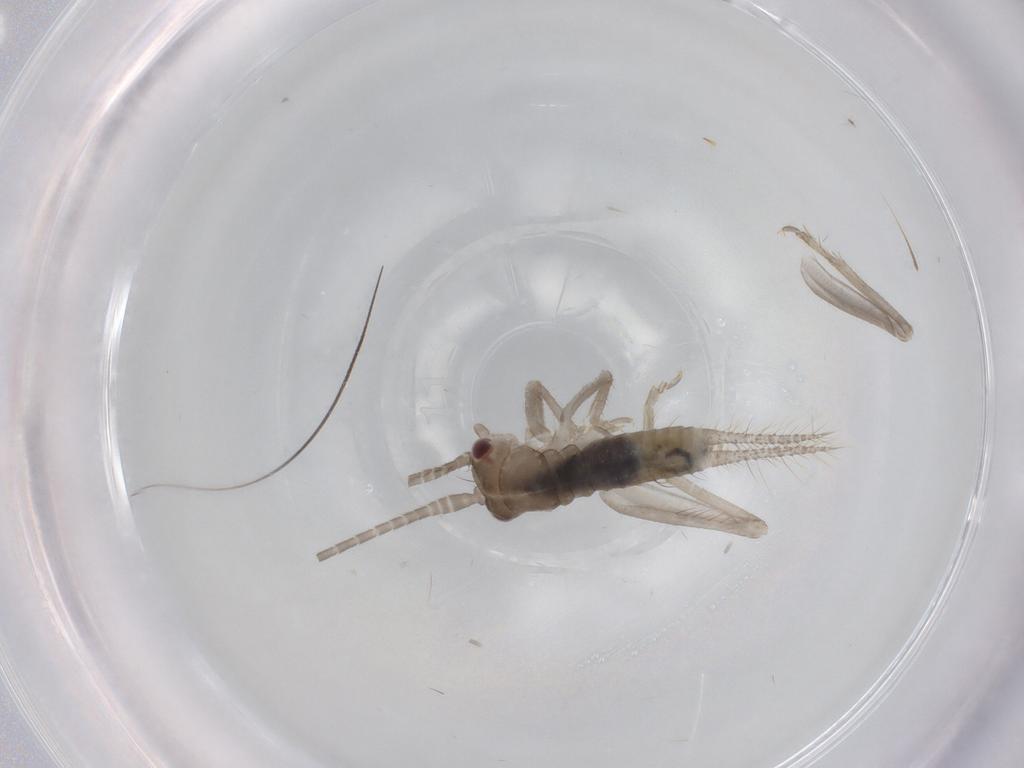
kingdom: Animalia
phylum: Arthropoda
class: Insecta
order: Orthoptera
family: Gryllidae
